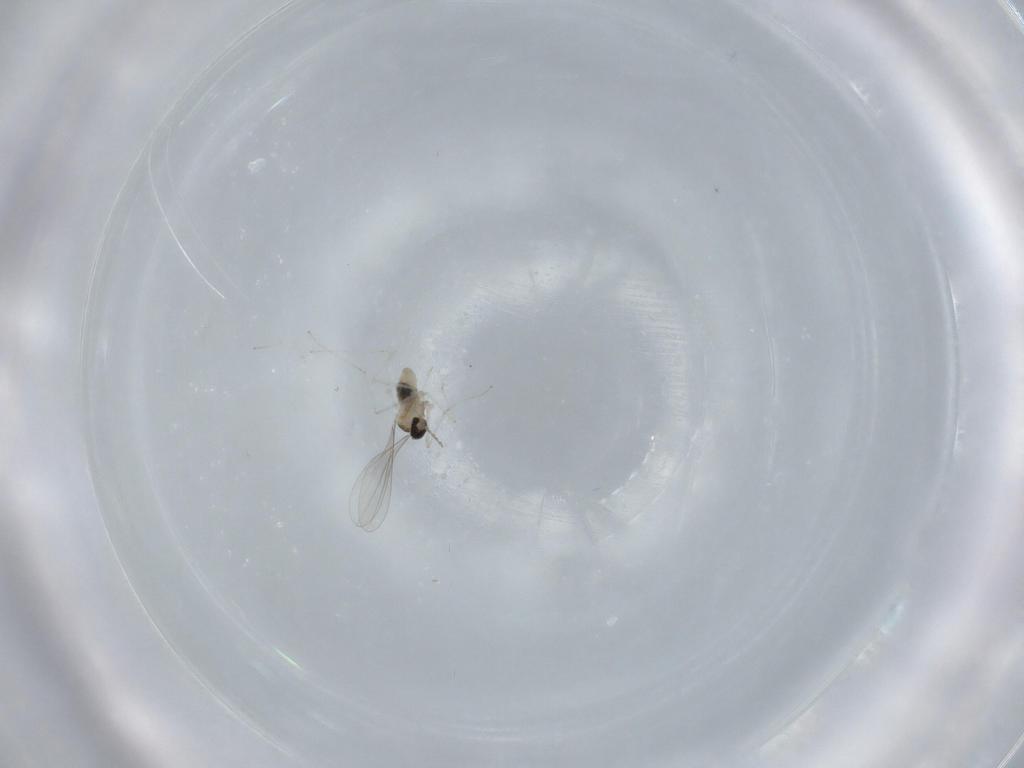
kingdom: Animalia
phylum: Arthropoda
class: Insecta
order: Diptera
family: Cecidomyiidae
